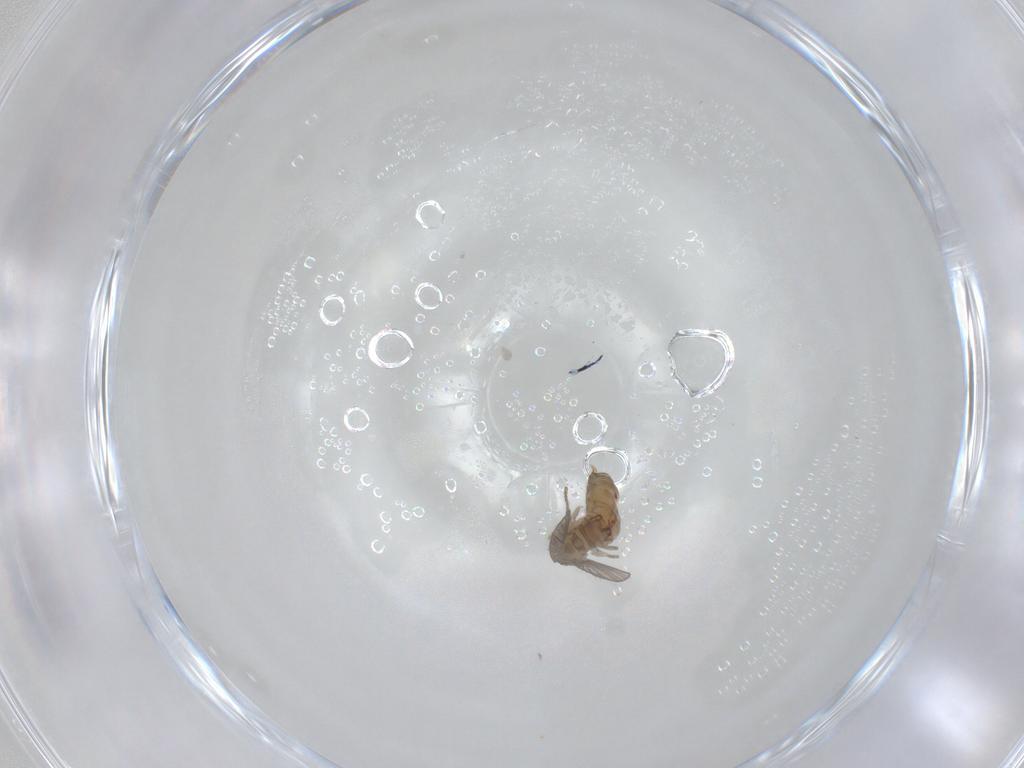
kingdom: Animalia
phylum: Arthropoda
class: Insecta
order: Diptera
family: Psychodidae
